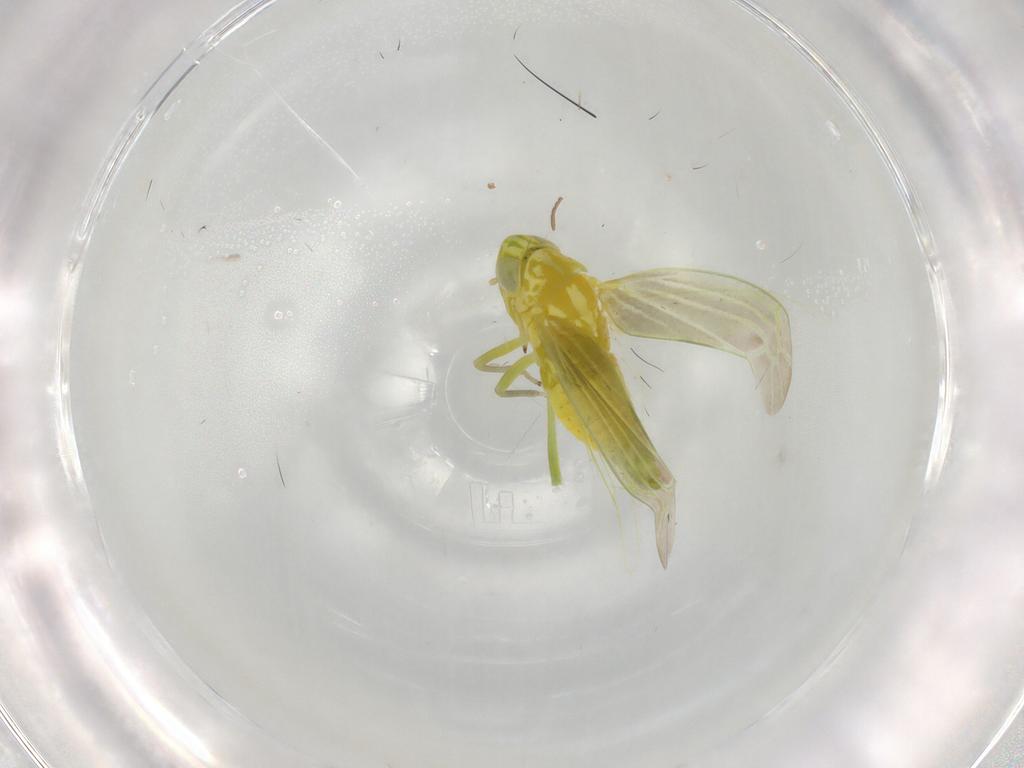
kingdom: Animalia
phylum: Arthropoda
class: Insecta
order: Hemiptera
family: Cicadellidae
